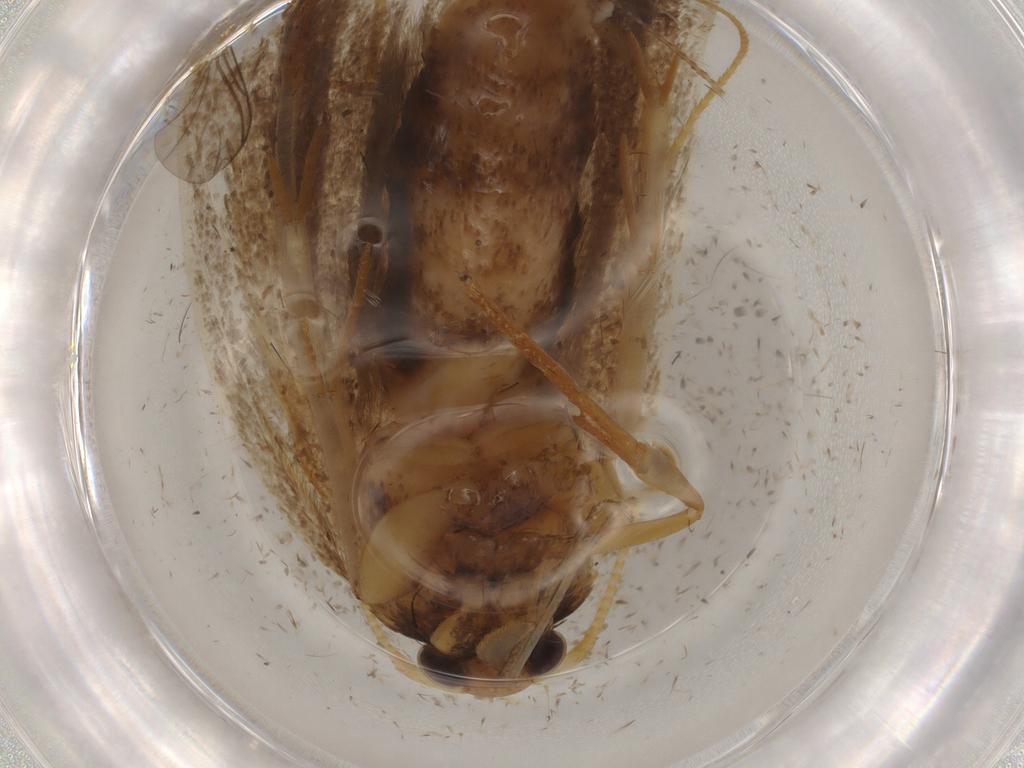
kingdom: Animalia
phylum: Arthropoda
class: Insecta
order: Lepidoptera
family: Lecithoceridae
